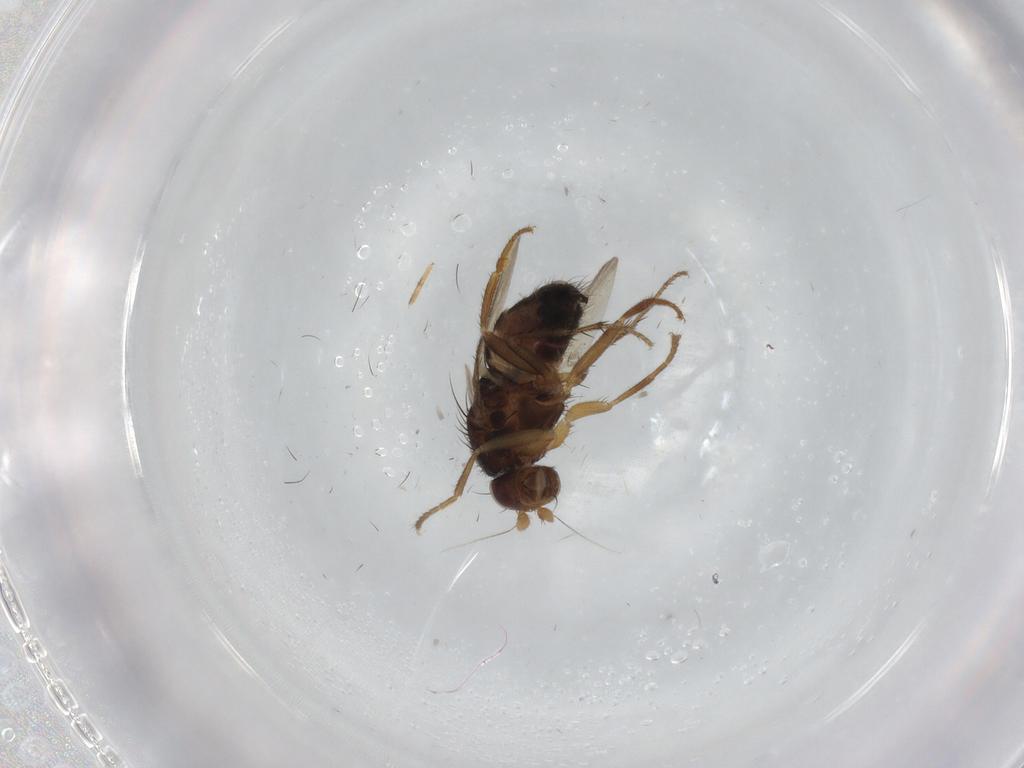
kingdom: Animalia
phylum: Arthropoda
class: Insecta
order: Diptera
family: Sphaeroceridae
